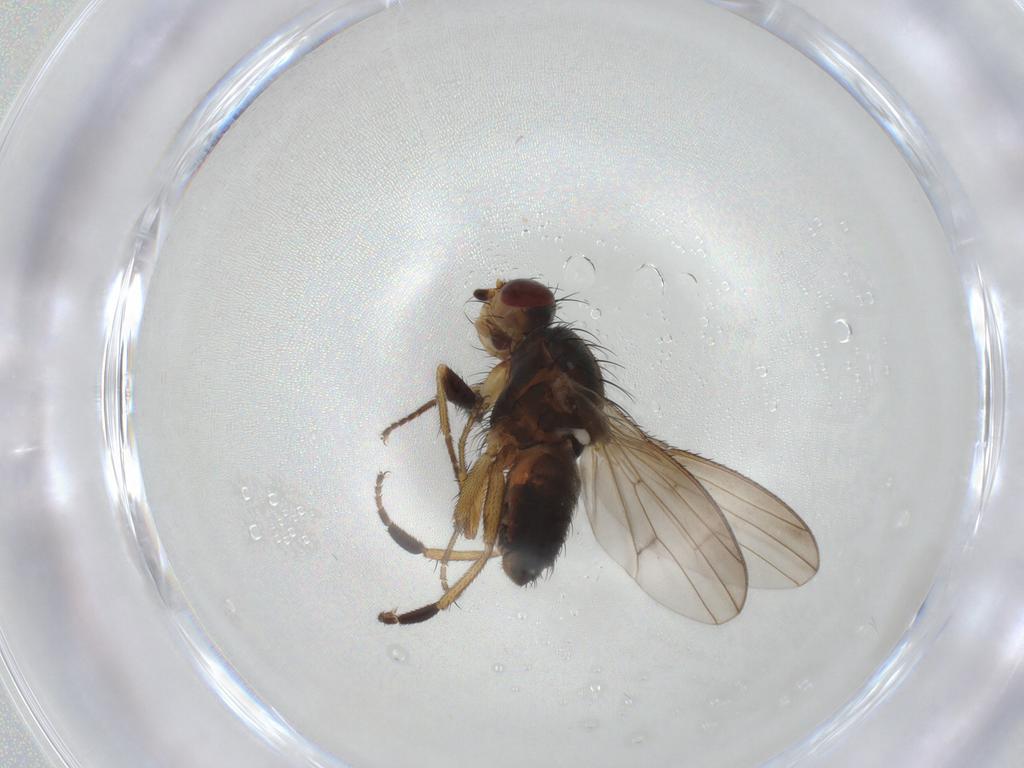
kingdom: Animalia
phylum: Arthropoda
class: Insecta
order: Diptera
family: Heleomyzidae
